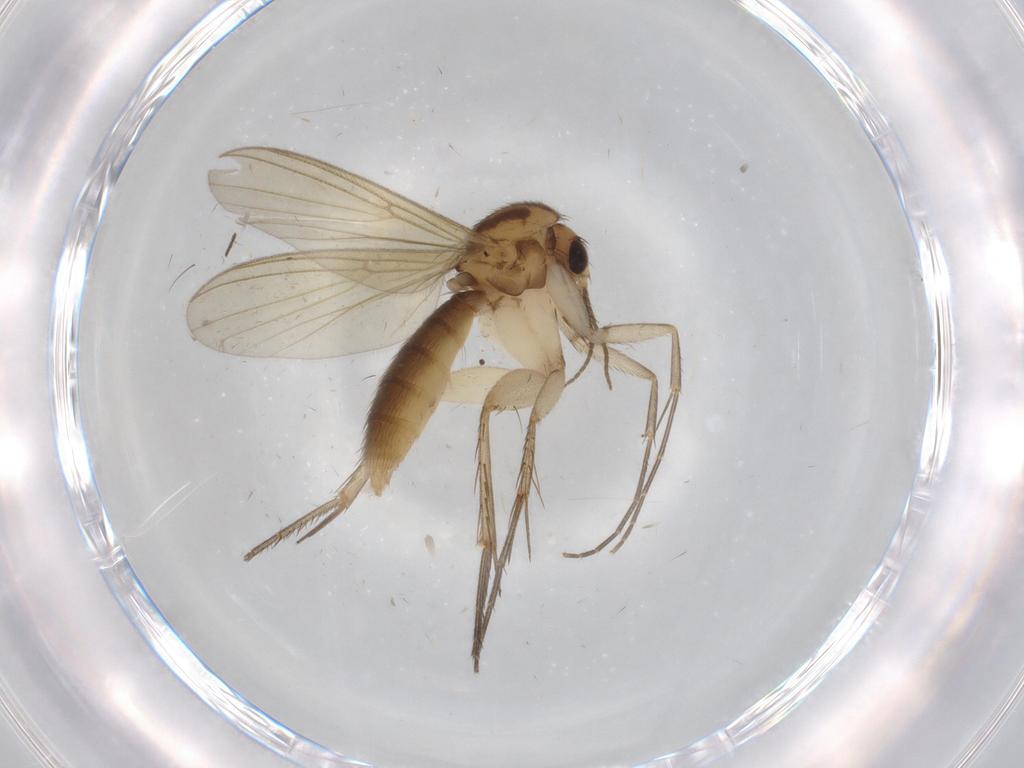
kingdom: Animalia
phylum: Arthropoda
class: Insecta
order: Diptera
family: Mycetophilidae
